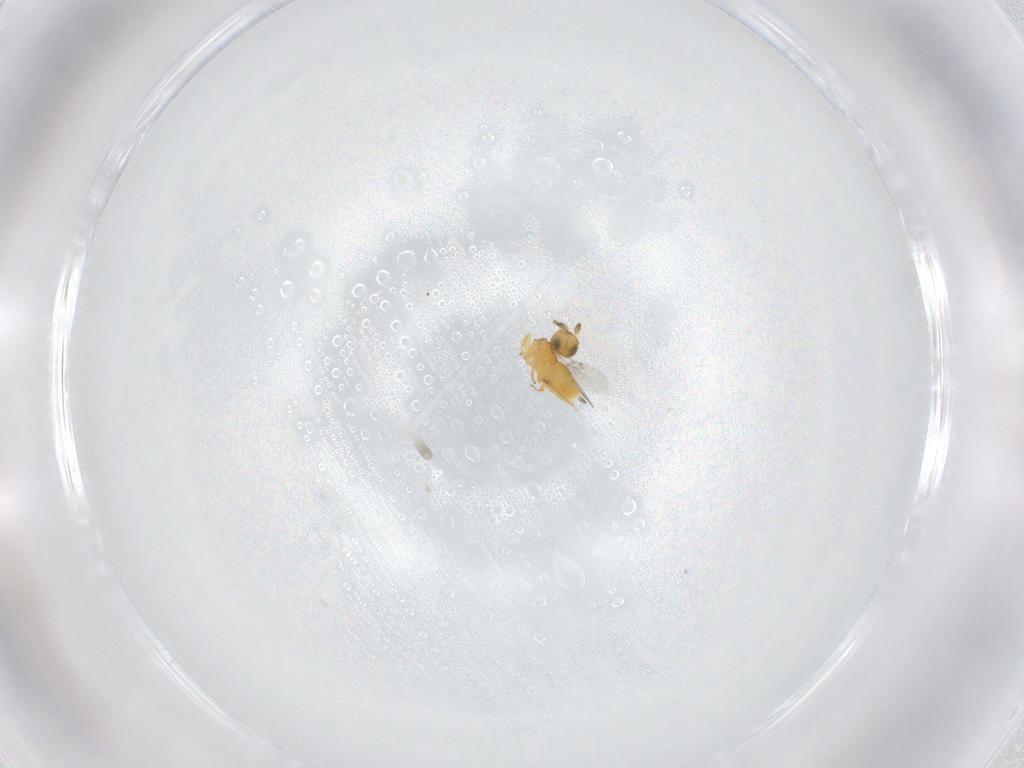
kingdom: Animalia
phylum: Arthropoda
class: Insecta
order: Hymenoptera
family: Encyrtidae
